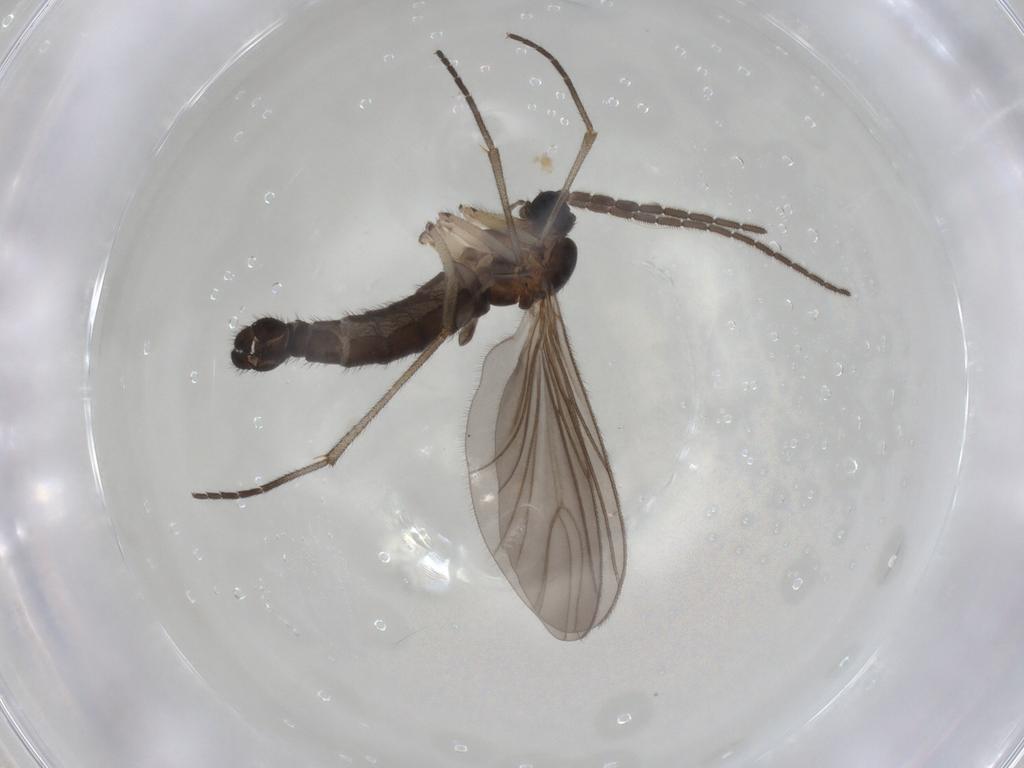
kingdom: Animalia
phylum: Arthropoda
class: Insecta
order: Diptera
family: Sciaridae
